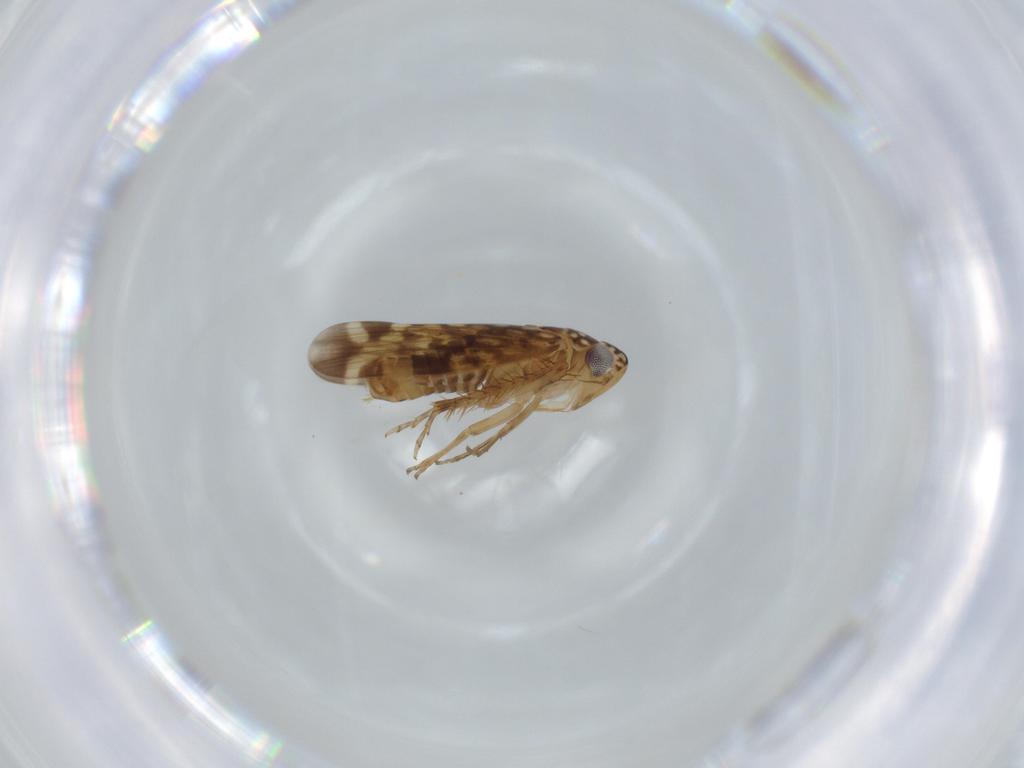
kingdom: Animalia
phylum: Arthropoda
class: Insecta
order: Hemiptera
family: Cicadellidae
